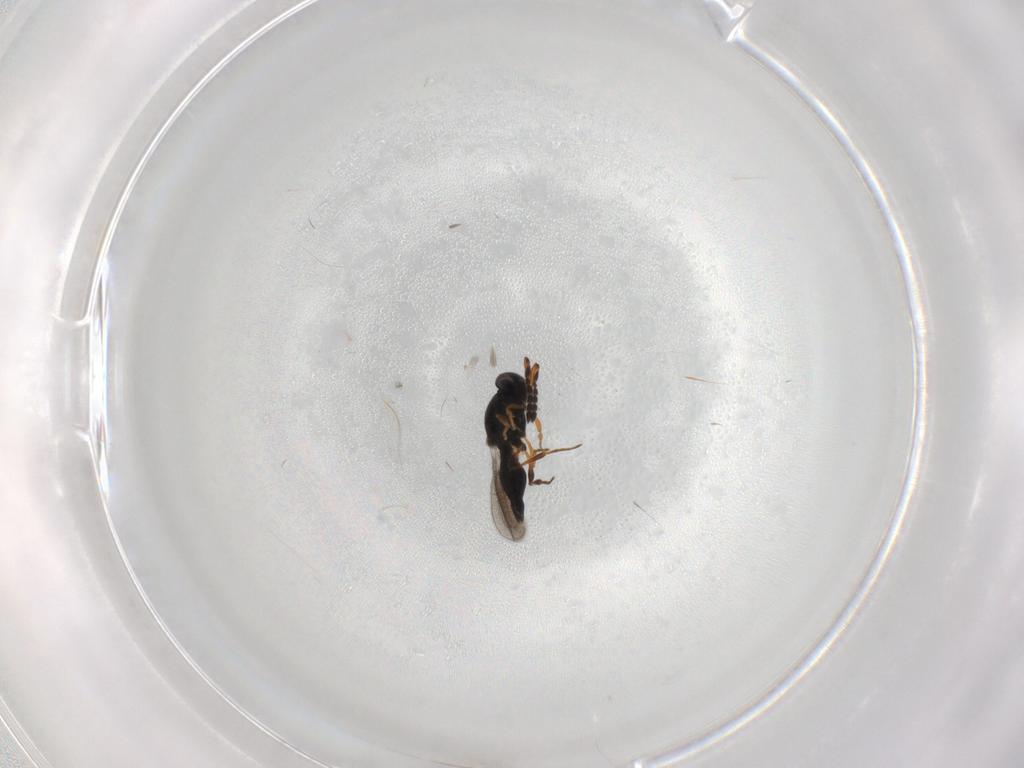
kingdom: Animalia
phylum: Arthropoda
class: Insecta
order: Hymenoptera
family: Platygastridae
